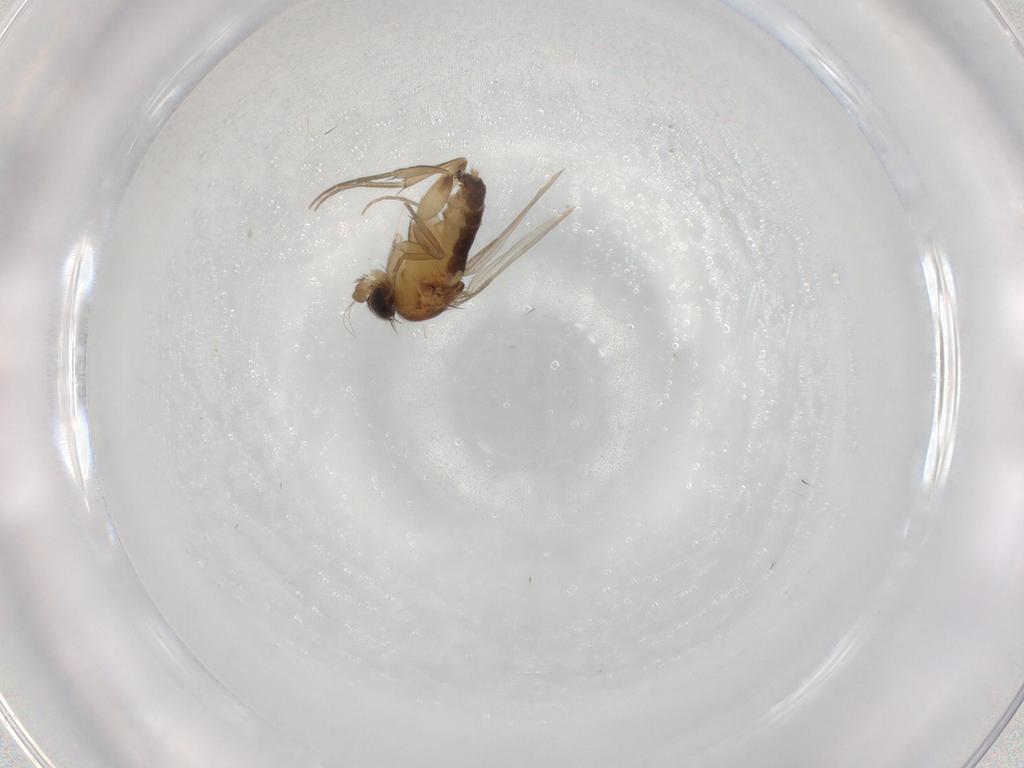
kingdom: Animalia
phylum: Arthropoda
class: Insecta
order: Diptera
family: Phoridae
